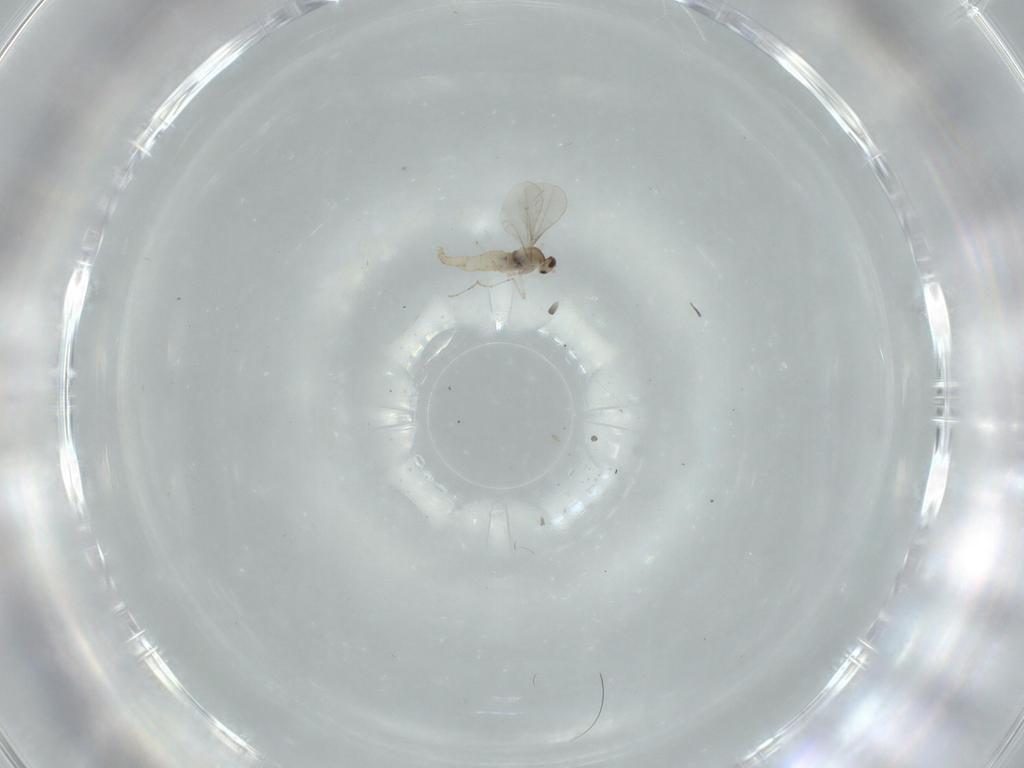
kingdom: Animalia
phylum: Arthropoda
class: Insecta
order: Diptera
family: Cecidomyiidae
